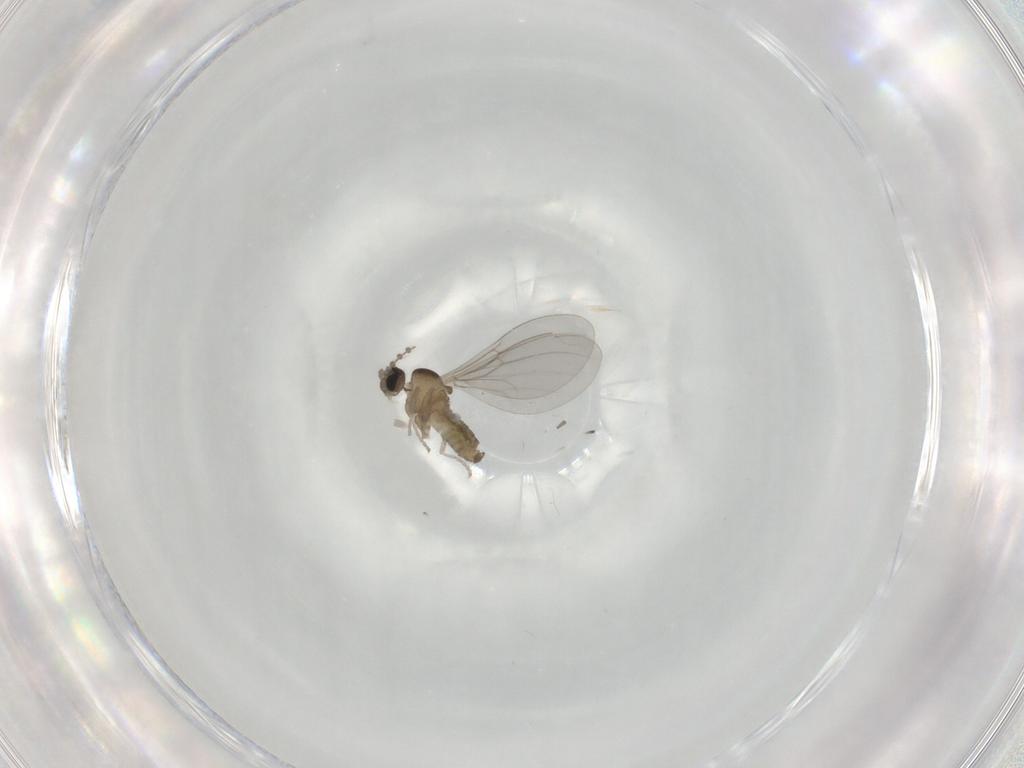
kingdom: Animalia
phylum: Arthropoda
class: Insecta
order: Diptera
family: Cecidomyiidae
